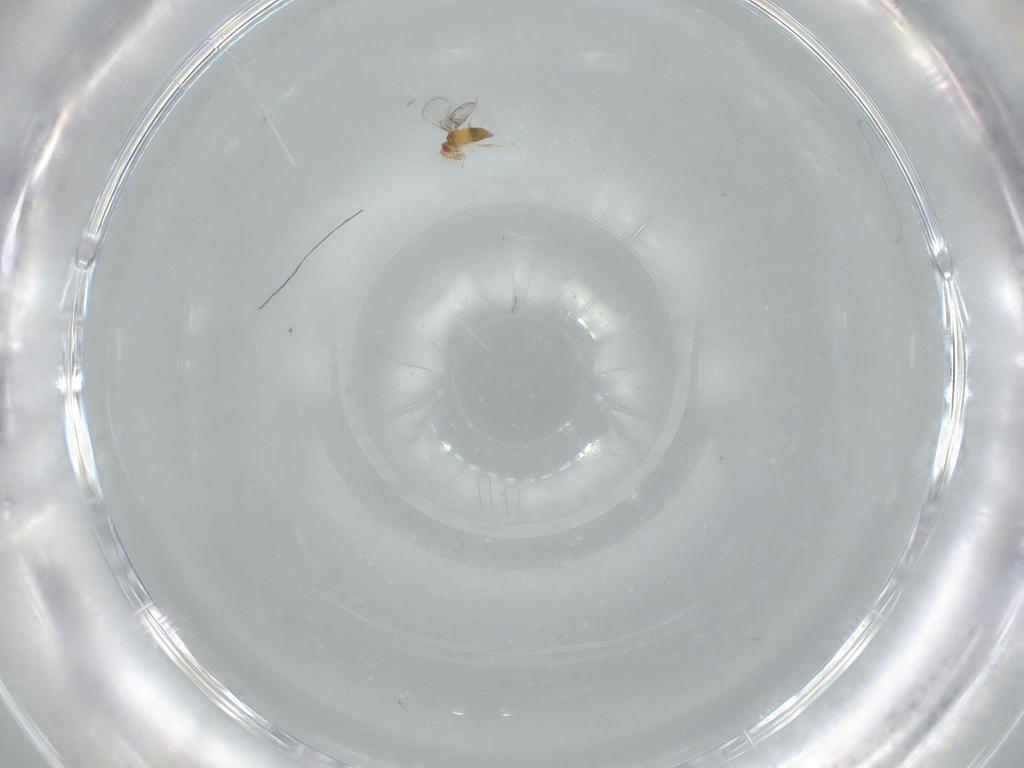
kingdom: Animalia
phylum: Arthropoda
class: Insecta
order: Hymenoptera
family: Trichogrammatidae
